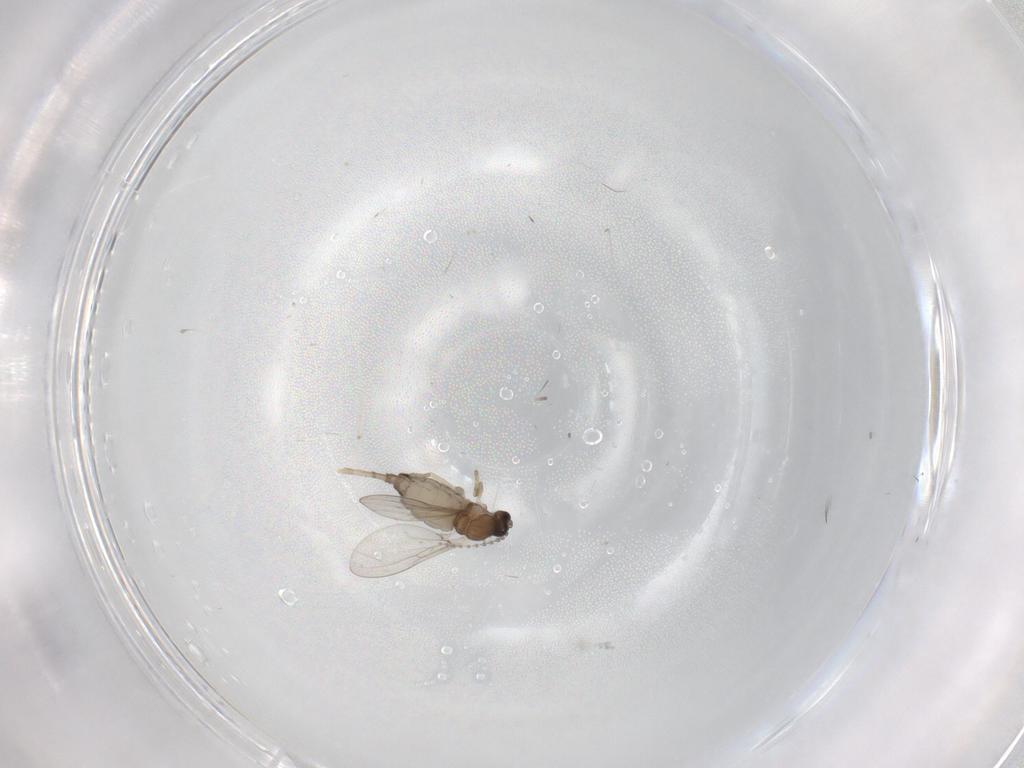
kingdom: Animalia
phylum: Arthropoda
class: Insecta
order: Diptera
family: Cecidomyiidae
